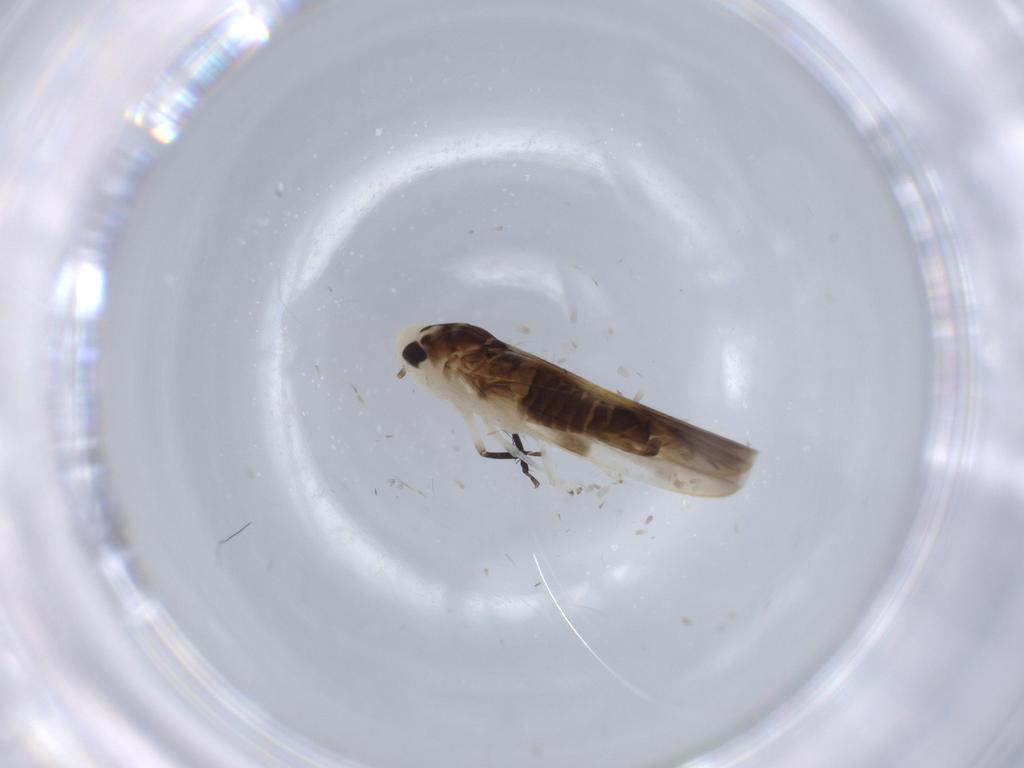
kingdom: Animalia
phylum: Arthropoda
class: Insecta
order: Hemiptera
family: Cicadellidae
